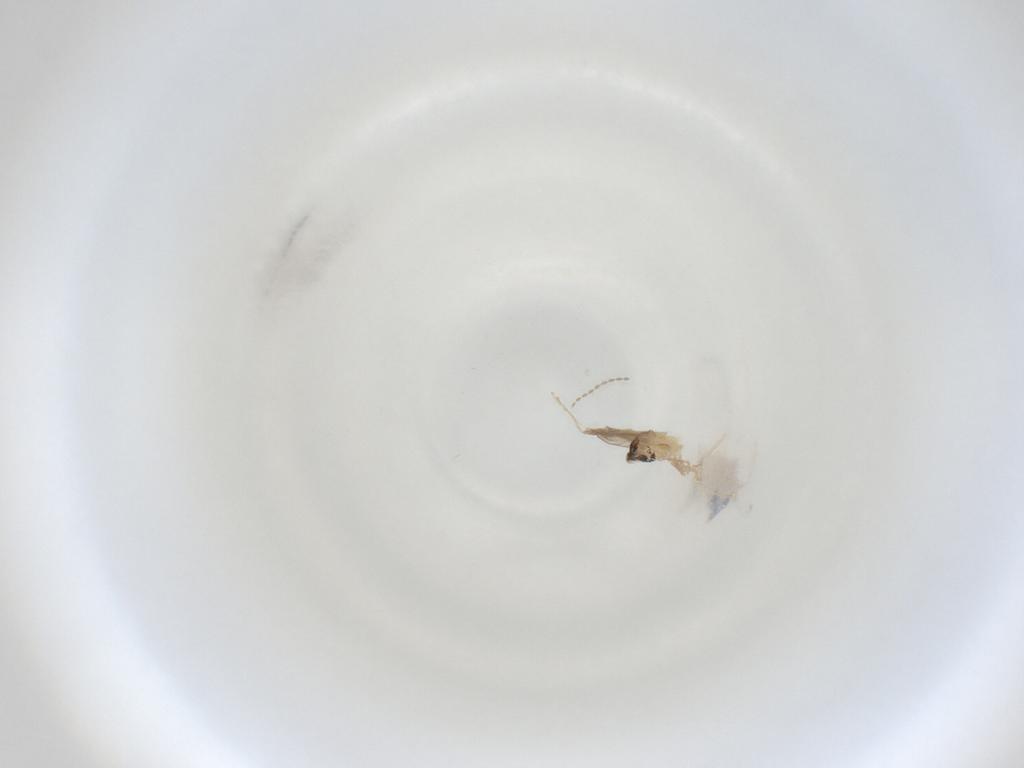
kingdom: Animalia
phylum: Arthropoda
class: Insecta
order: Diptera
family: Cecidomyiidae
